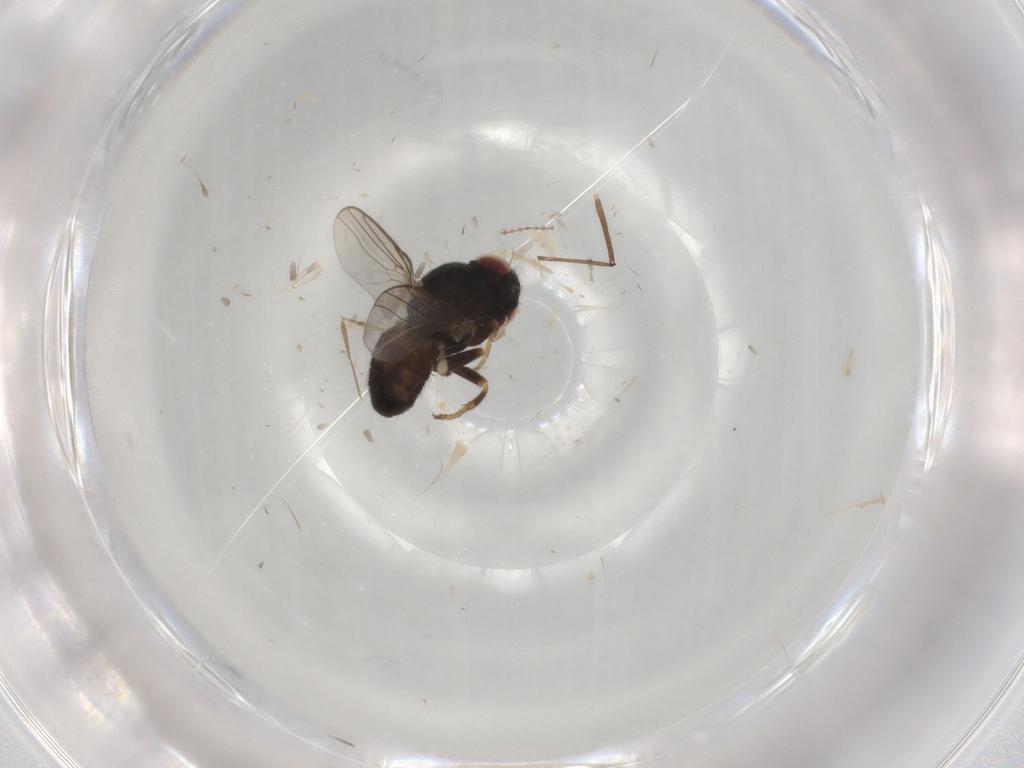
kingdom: Animalia
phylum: Arthropoda
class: Insecta
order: Diptera
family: Chloropidae
